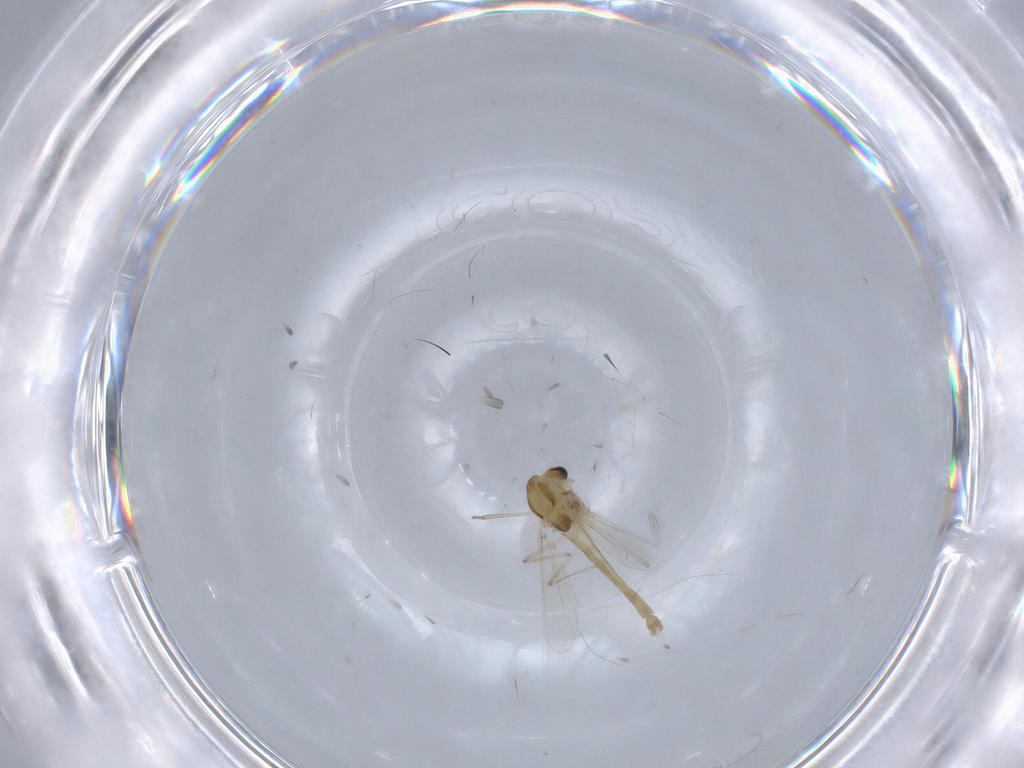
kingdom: Animalia
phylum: Arthropoda
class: Insecta
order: Diptera
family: Chironomidae
